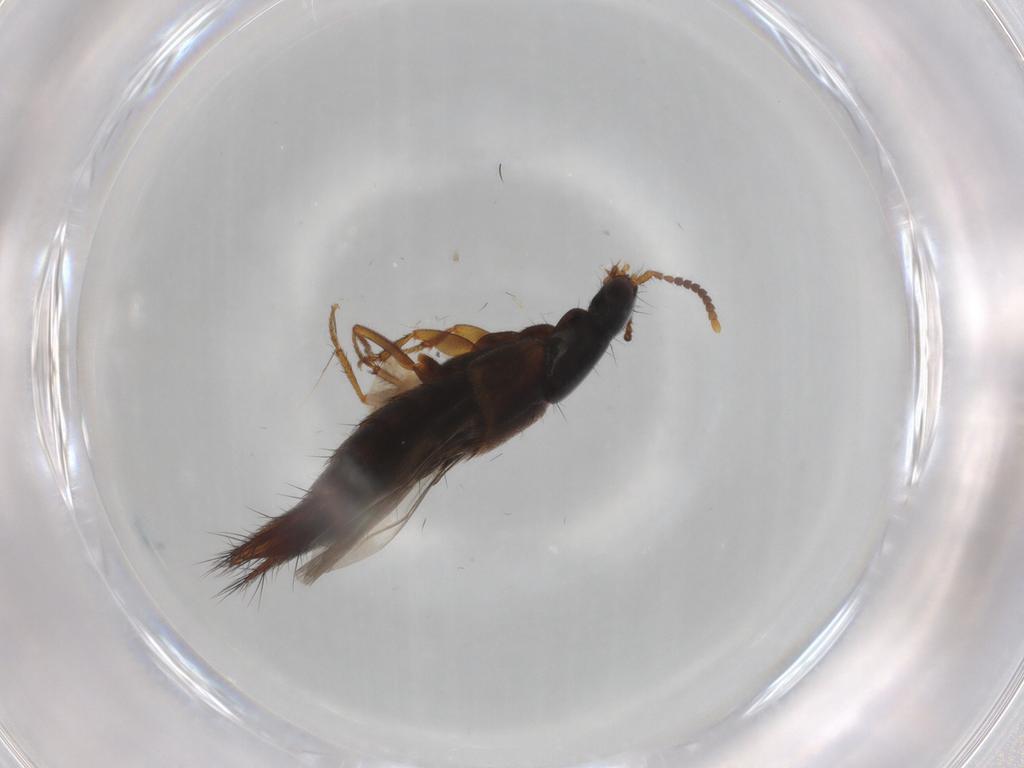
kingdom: Animalia
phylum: Arthropoda
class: Insecta
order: Coleoptera
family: Staphylinidae
